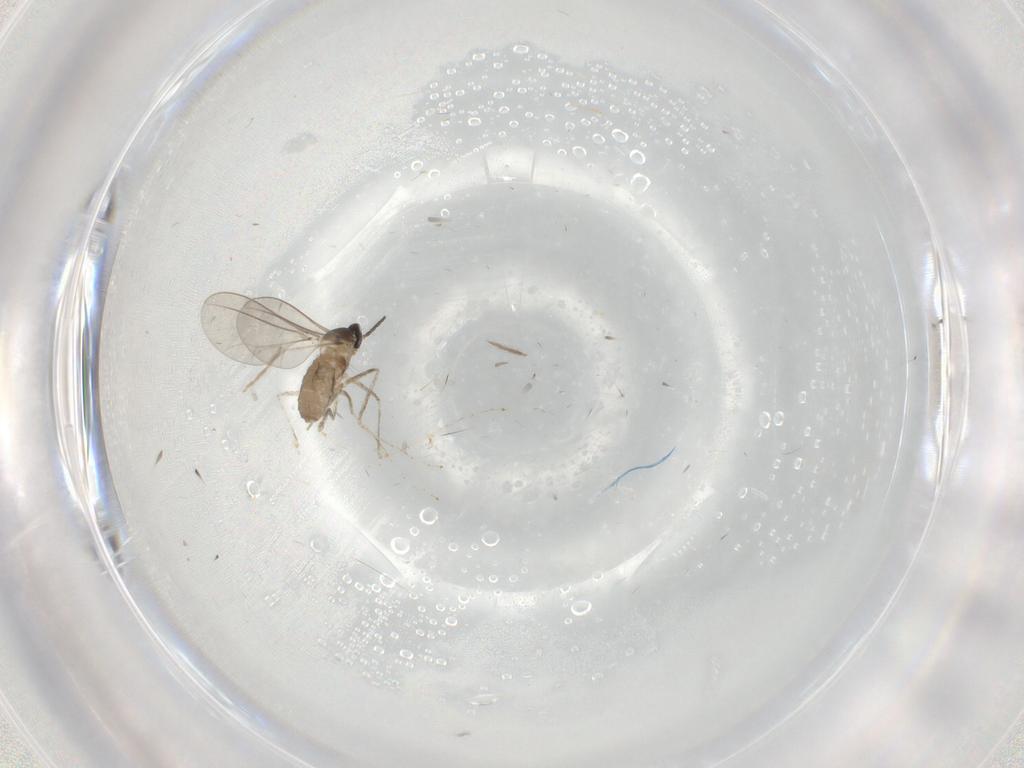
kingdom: Animalia
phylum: Arthropoda
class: Insecta
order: Diptera
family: Cecidomyiidae
